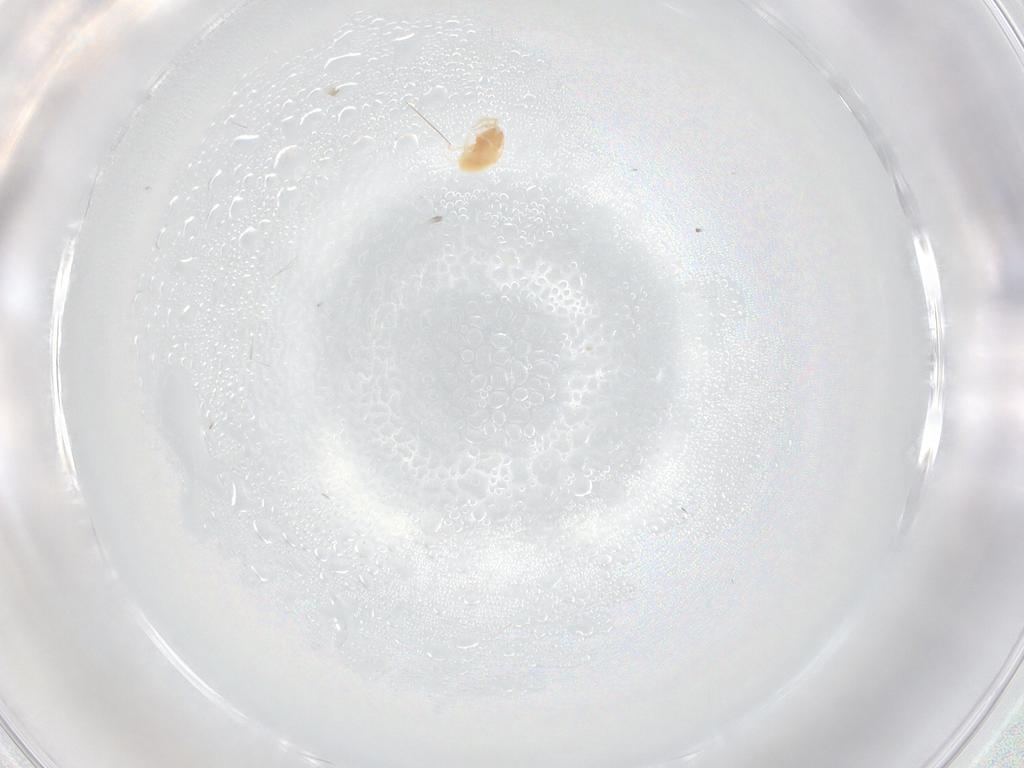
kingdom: Animalia
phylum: Arthropoda
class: Arachnida
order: Trombidiformes
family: Tetranychidae
